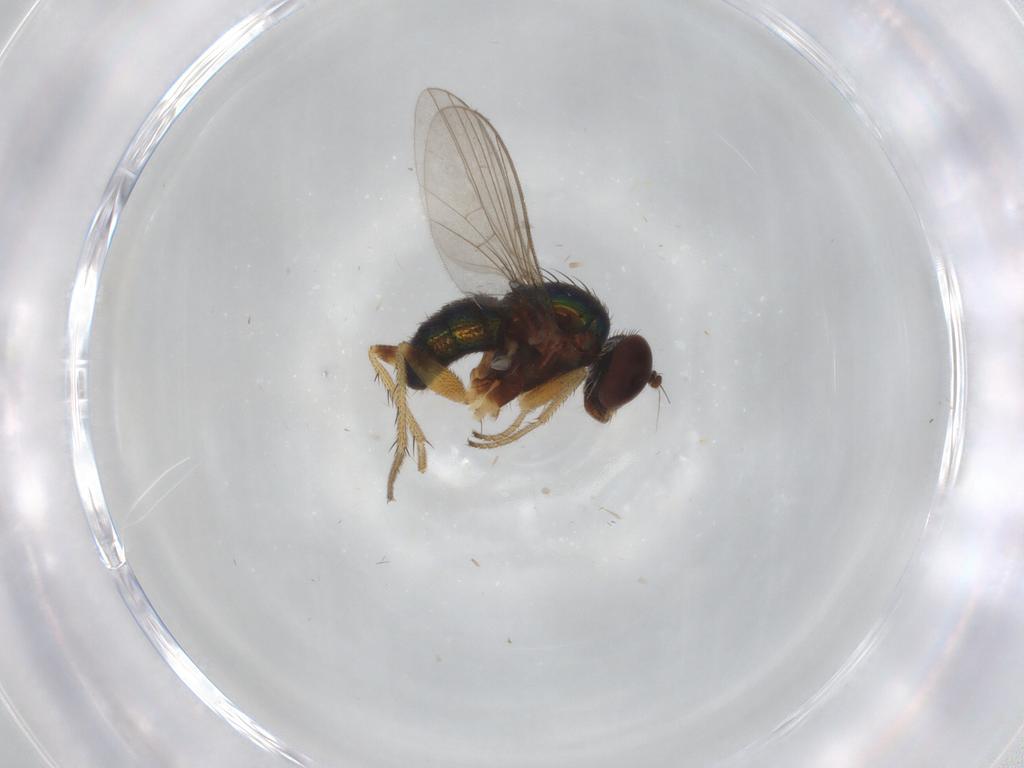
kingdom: Animalia
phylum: Arthropoda
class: Insecta
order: Diptera
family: Ceratopogonidae
